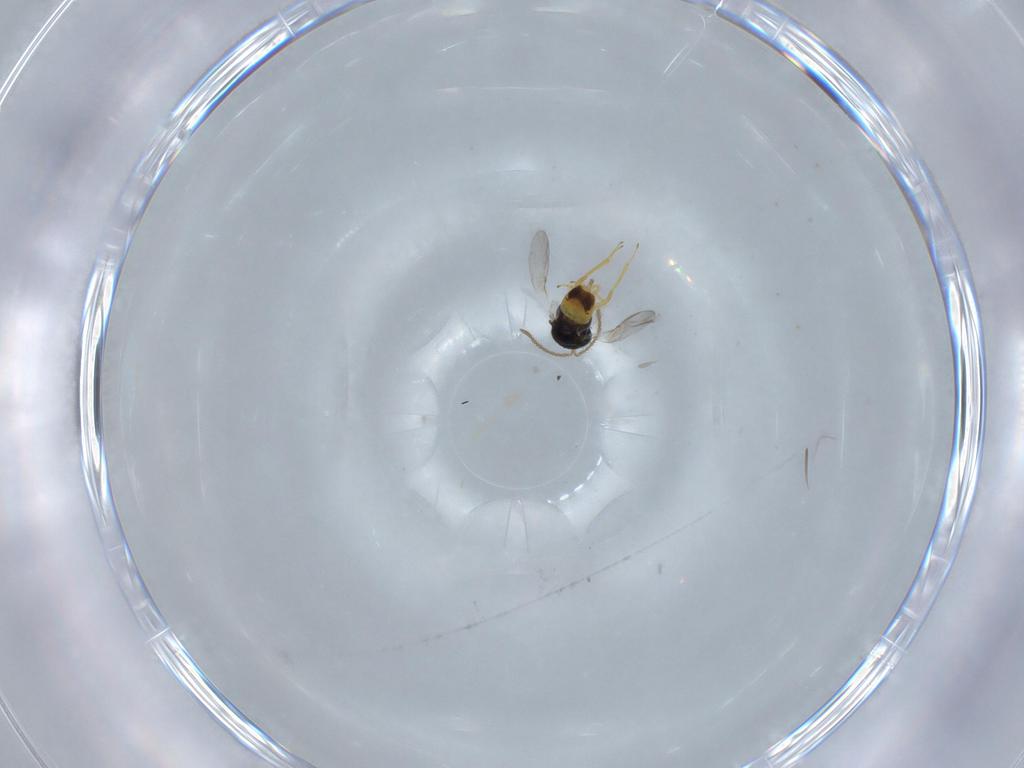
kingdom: Animalia
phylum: Arthropoda
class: Insecta
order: Hymenoptera
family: Encyrtidae
